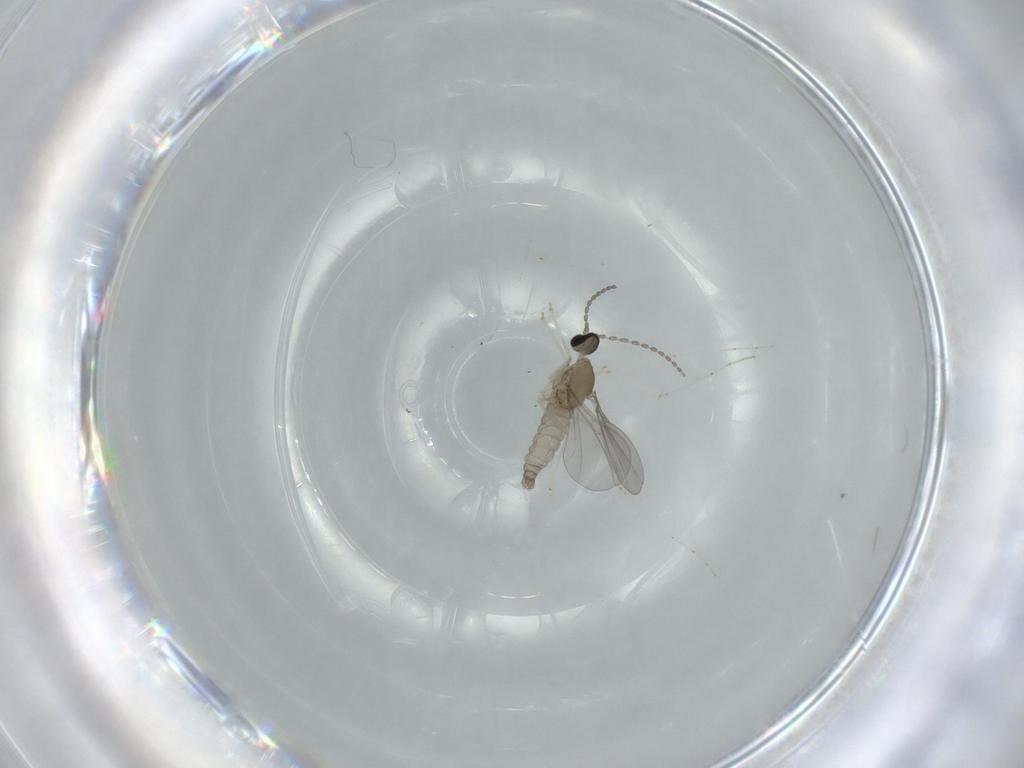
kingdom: Animalia
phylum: Arthropoda
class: Insecta
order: Diptera
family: Cecidomyiidae
